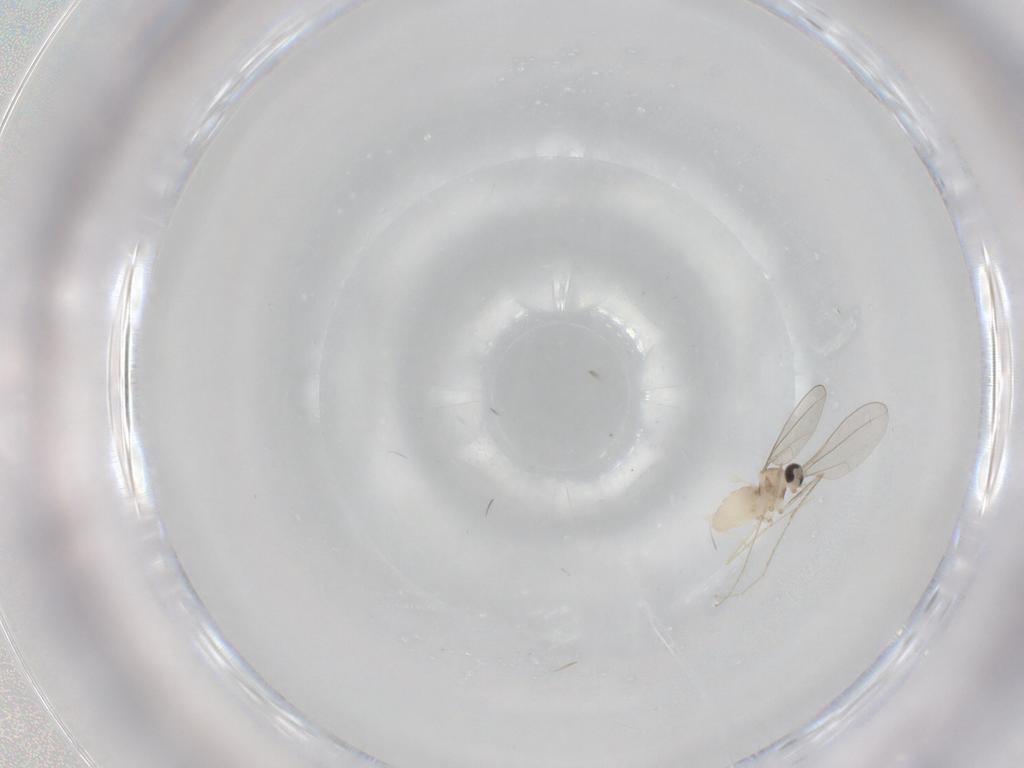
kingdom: Animalia
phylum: Arthropoda
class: Insecta
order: Diptera
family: Cecidomyiidae
